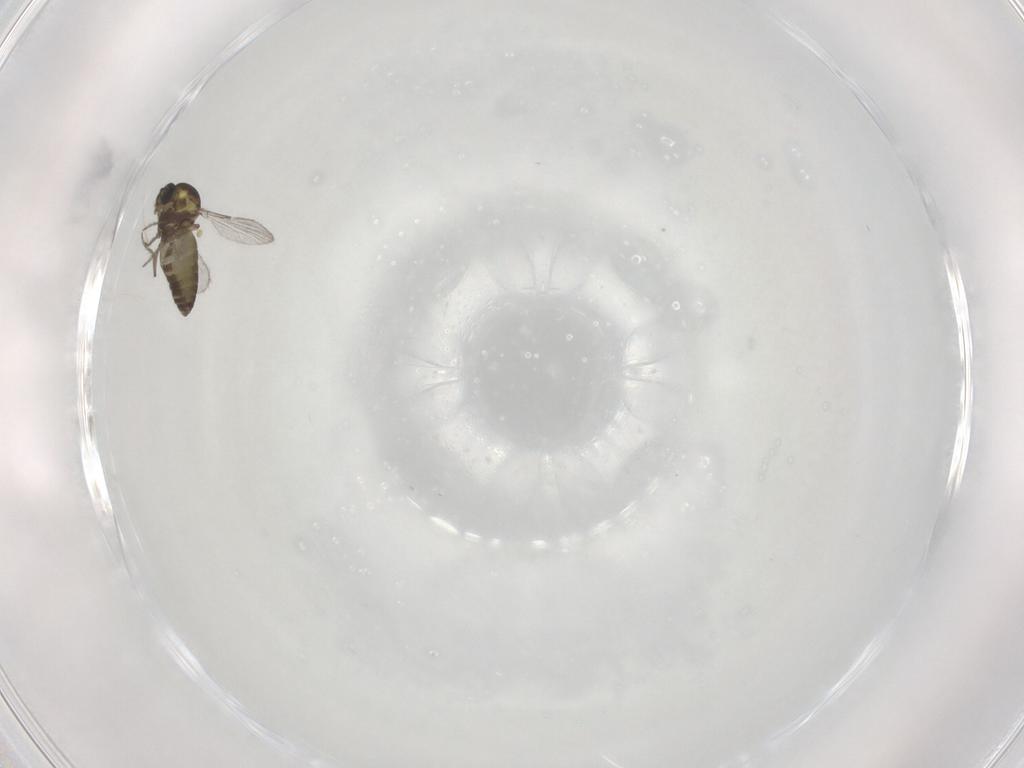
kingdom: Animalia
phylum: Arthropoda
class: Insecta
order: Diptera
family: Ceratopogonidae
